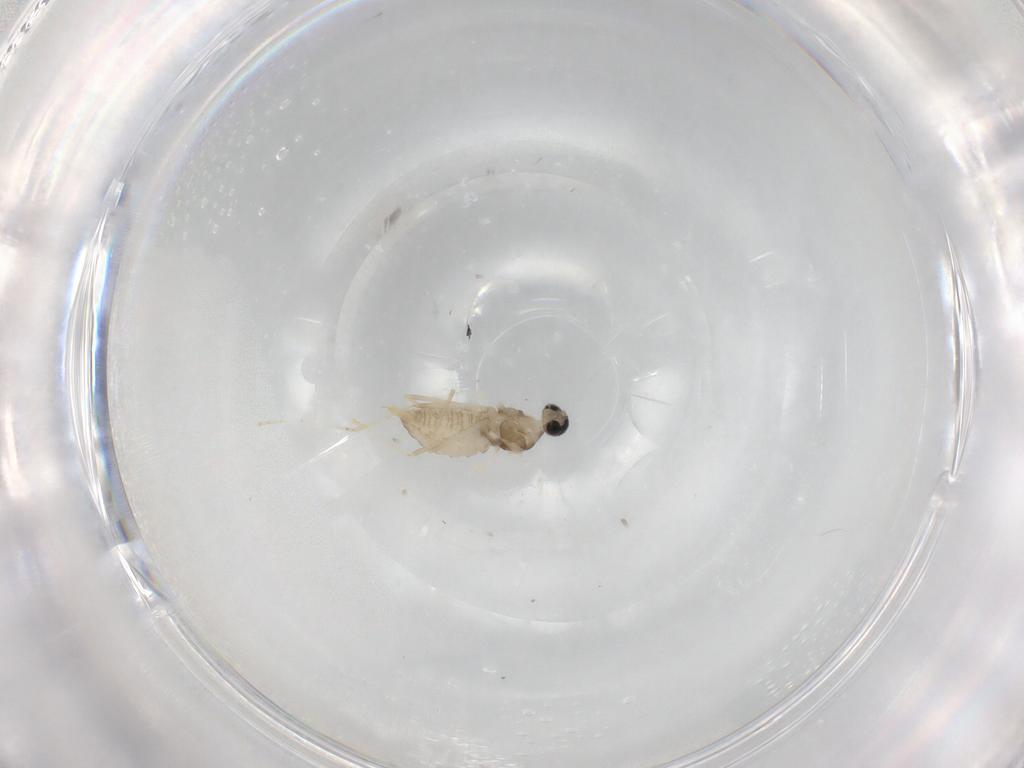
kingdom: Animalia
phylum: Arthropoda
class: Insecta
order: Diptera
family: Cecidomyiidae
